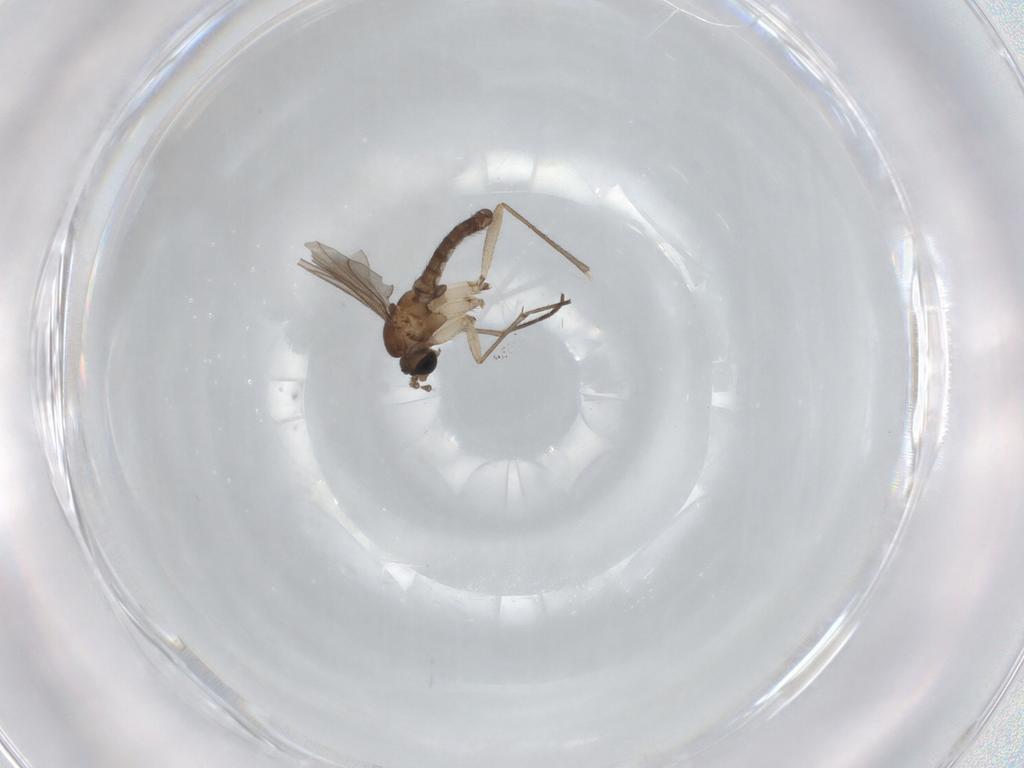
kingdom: Animalia
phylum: Arthropoda
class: Insecta
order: Diptera
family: Sciaridae
